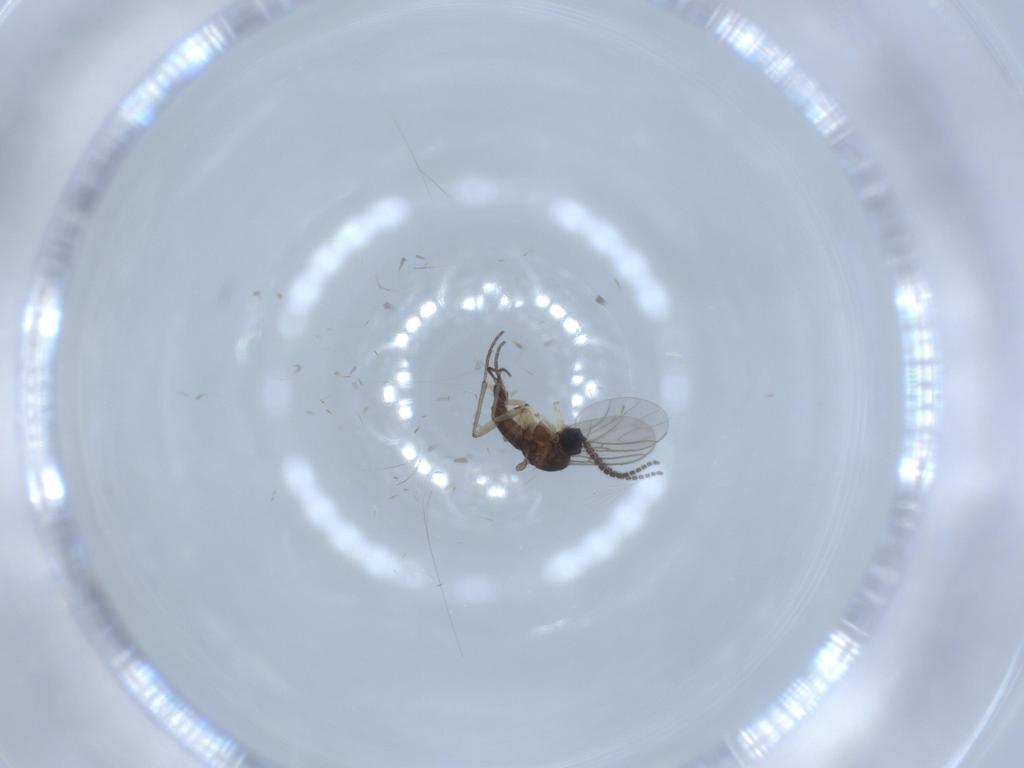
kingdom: Animalia
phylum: Arthropoda
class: Insecta
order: Diptera
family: Sciaridae
